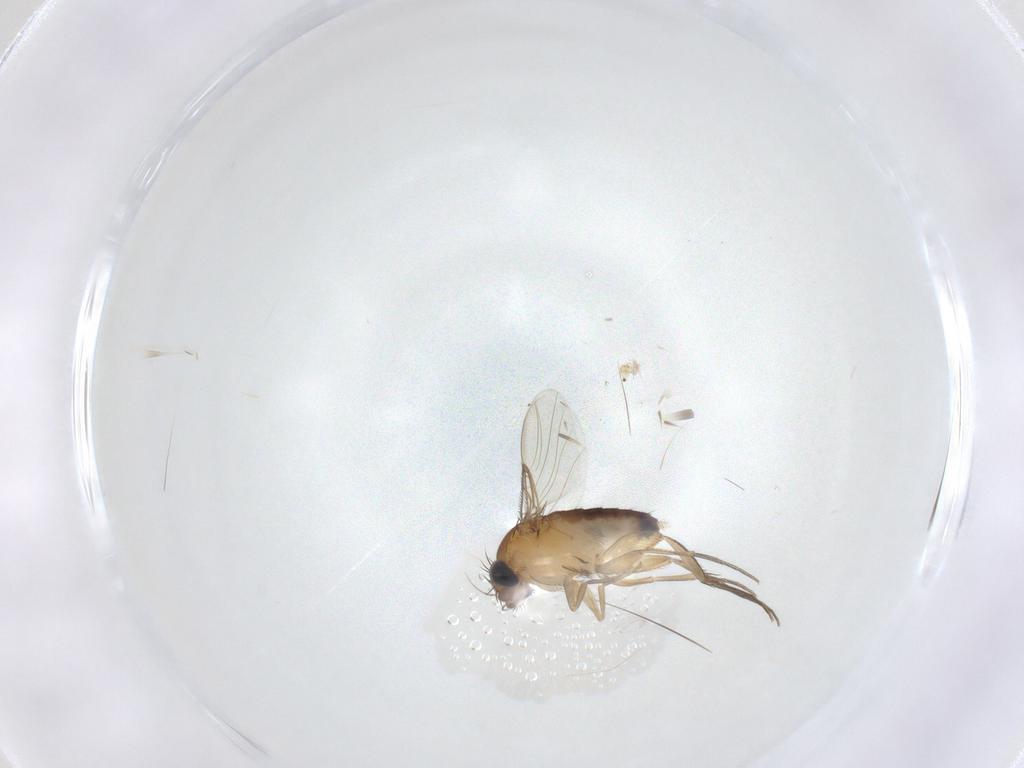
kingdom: Animalia
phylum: Arthropoda
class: Insecta
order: Diptera
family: Phoridae
